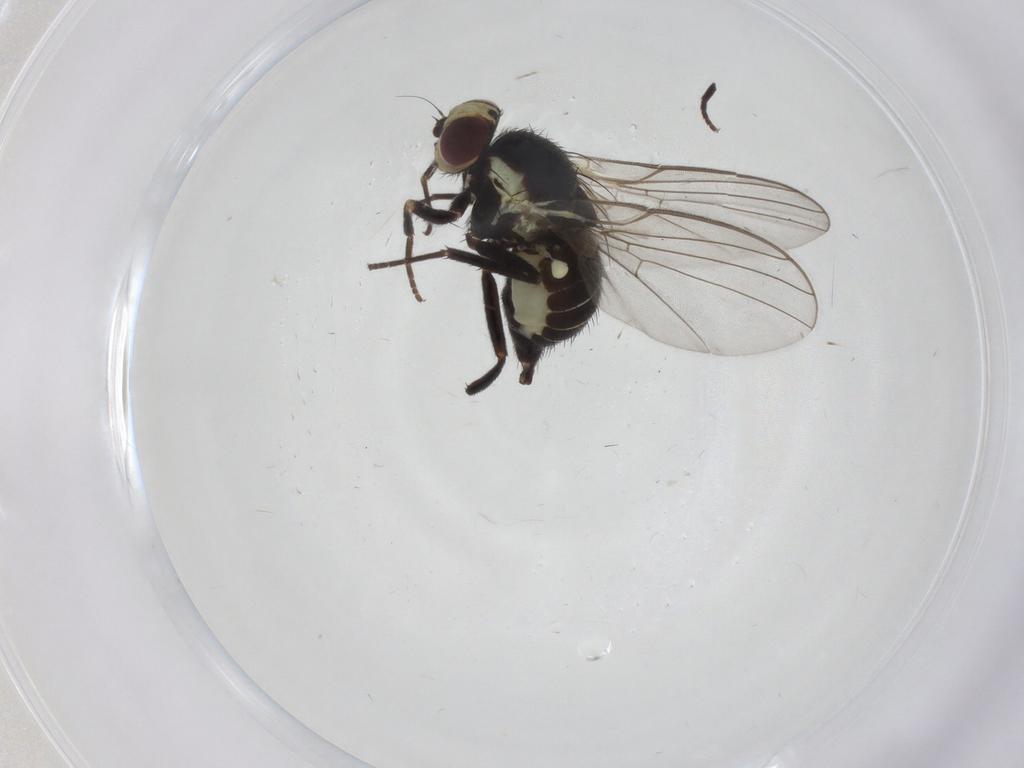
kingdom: Animalia
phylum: Arthropoda
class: Insecta
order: Diptera
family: Agromyzidae
